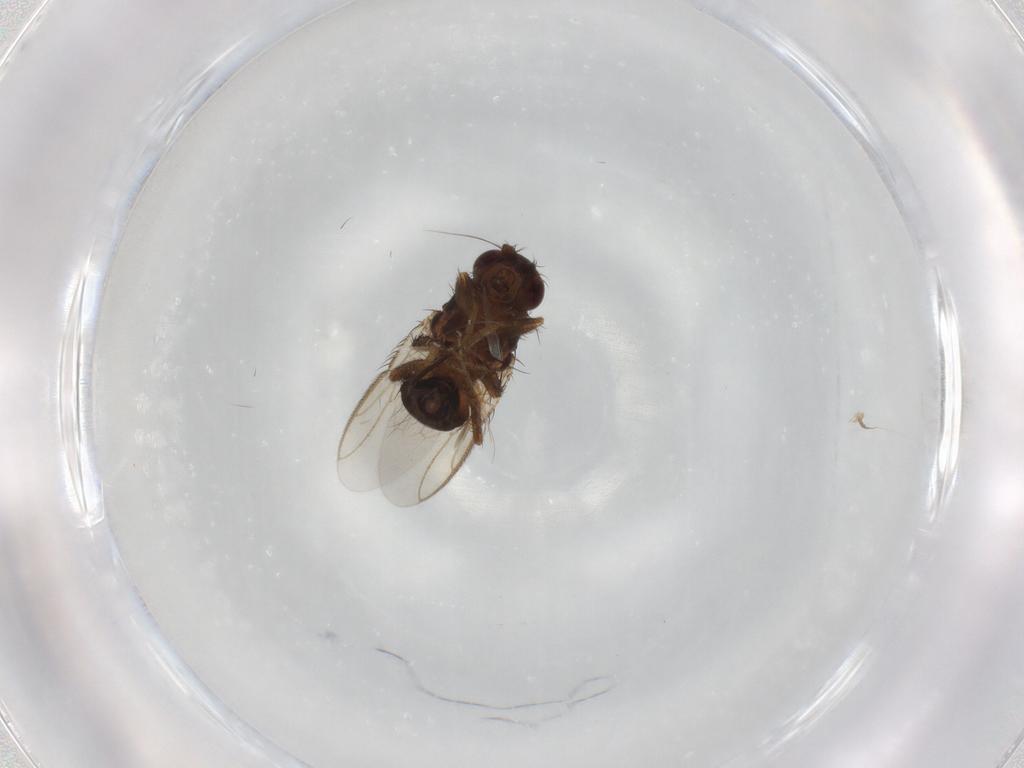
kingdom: Animalia
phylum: Arthropoda
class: Insecta
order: Diptera
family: Sphaeroceridae
